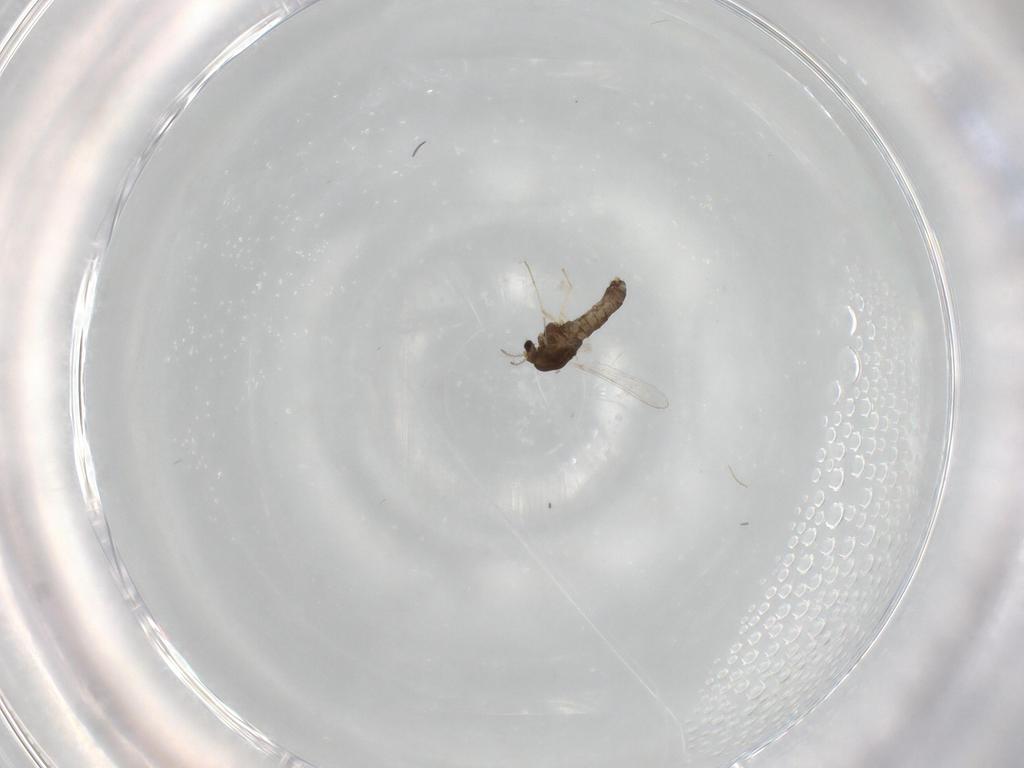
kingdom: Animalia
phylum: Arthropoda
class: Insecta
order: Diptera
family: Chironomidae
